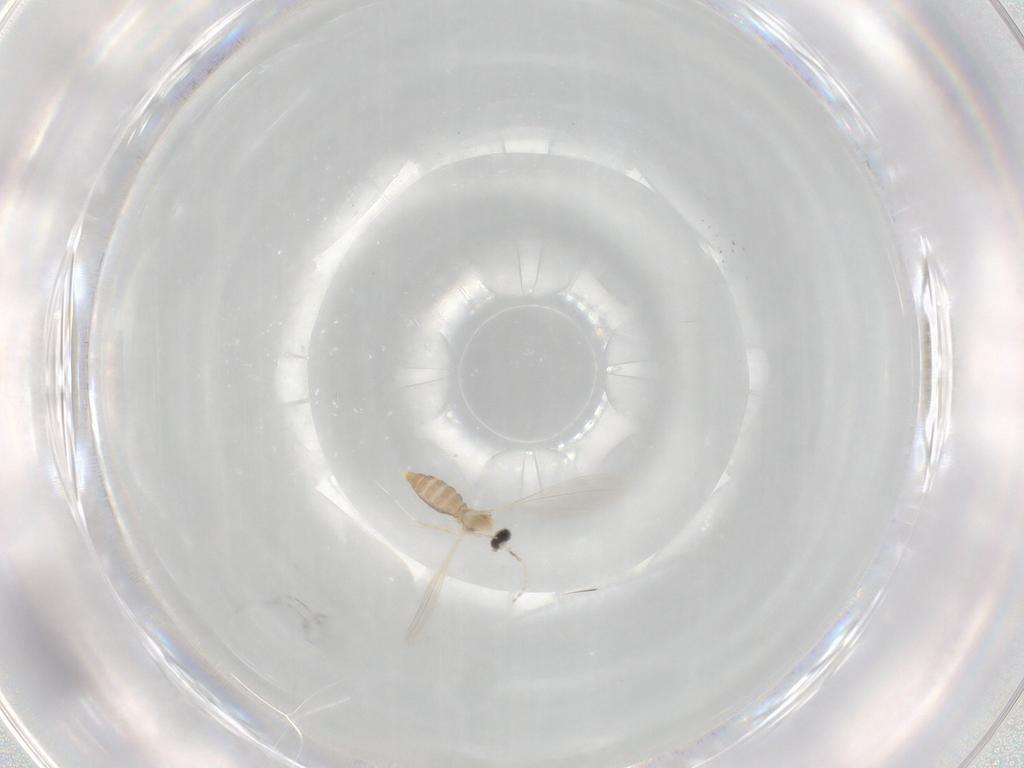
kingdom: Animalia
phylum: Arthropoda
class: Insecta
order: Diptera
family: Cecidomyiidae
